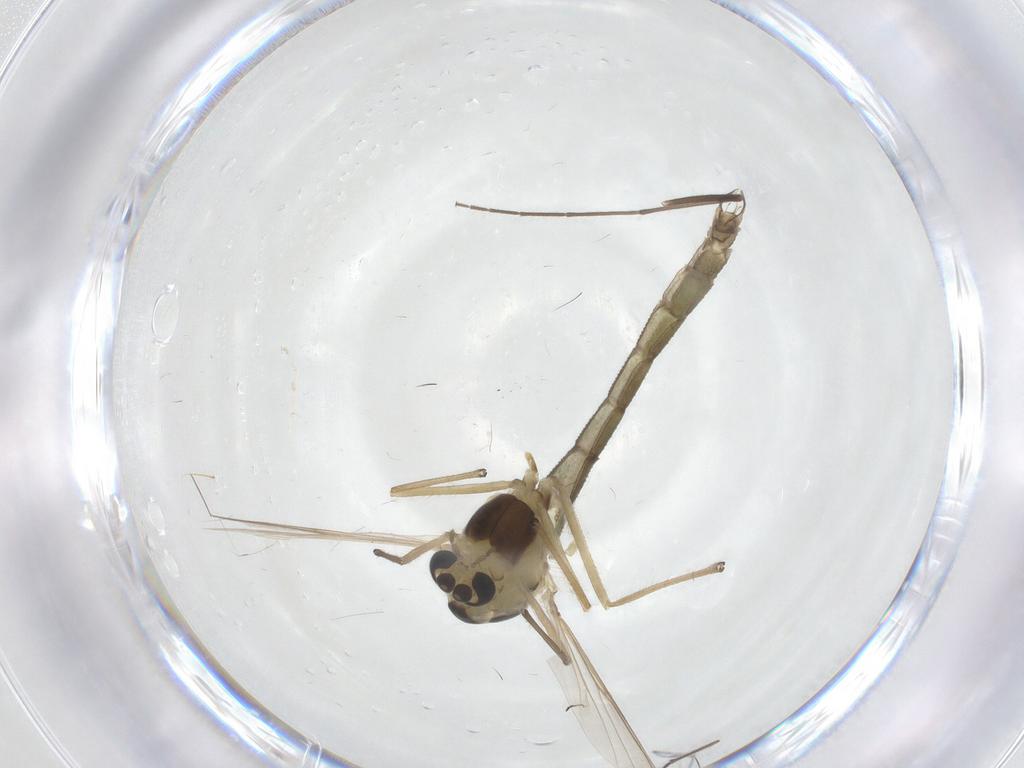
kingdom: Animalia
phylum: Arthropoda
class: Insecta
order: Diptera
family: Chironomidae
